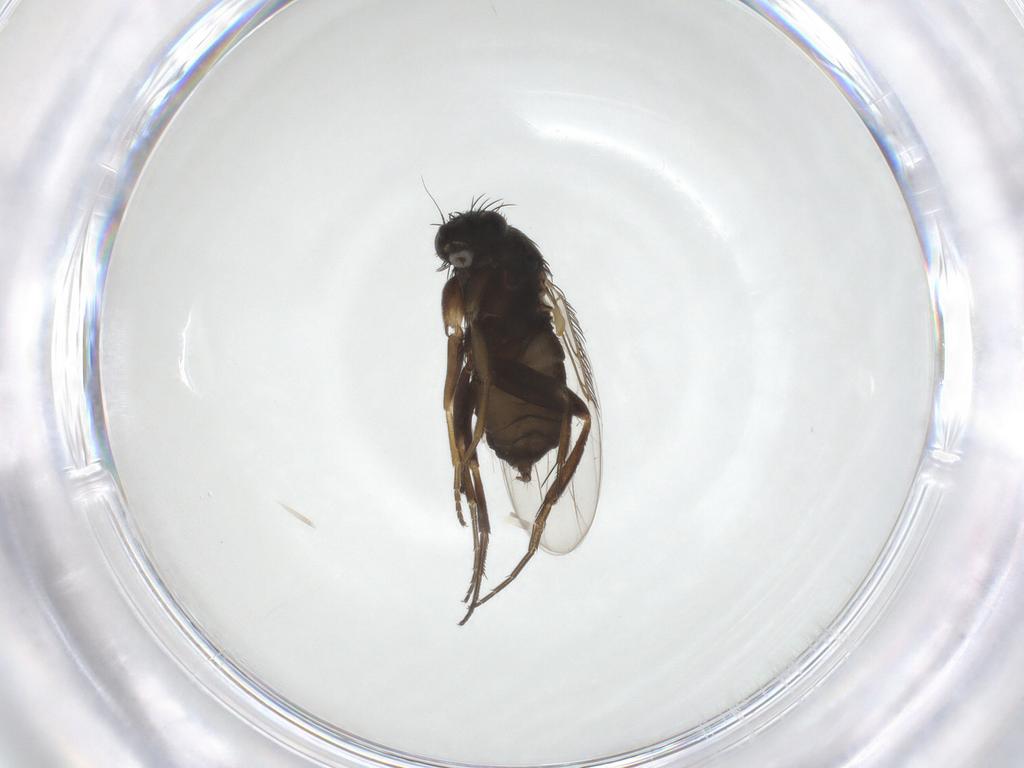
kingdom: Animalia
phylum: Arthropoda
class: Insecta
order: Diptera
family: Phoridae
